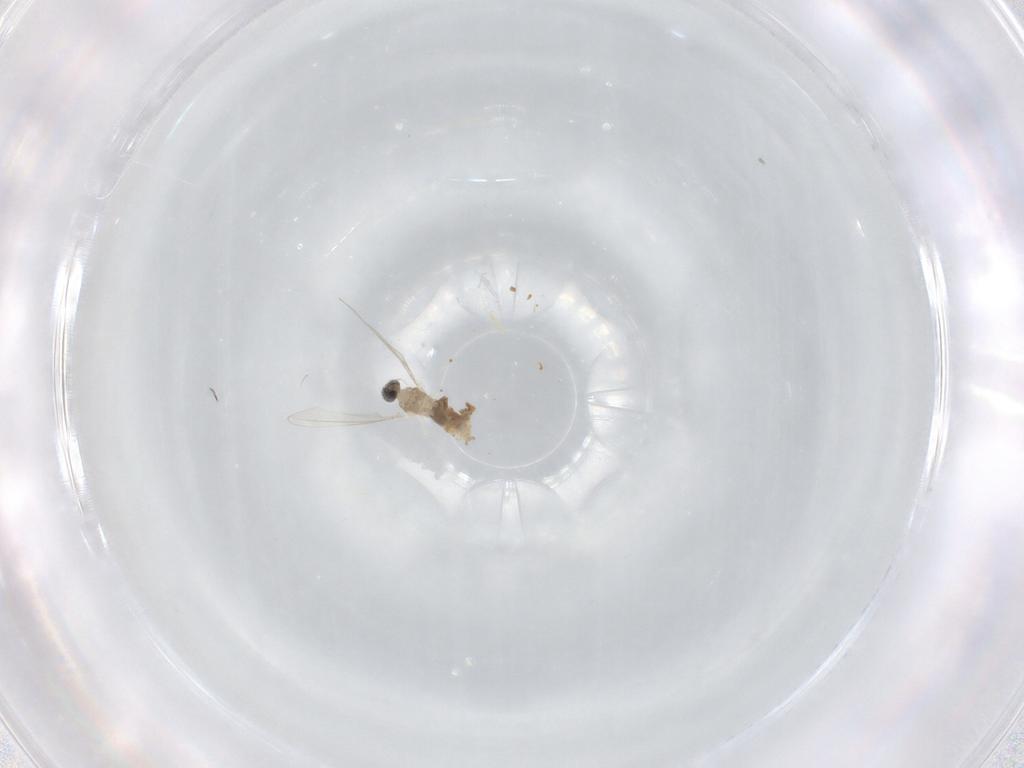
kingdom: Animalia
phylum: Arthropoda
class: Insecta
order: Diptera
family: Cecidomyiidae
